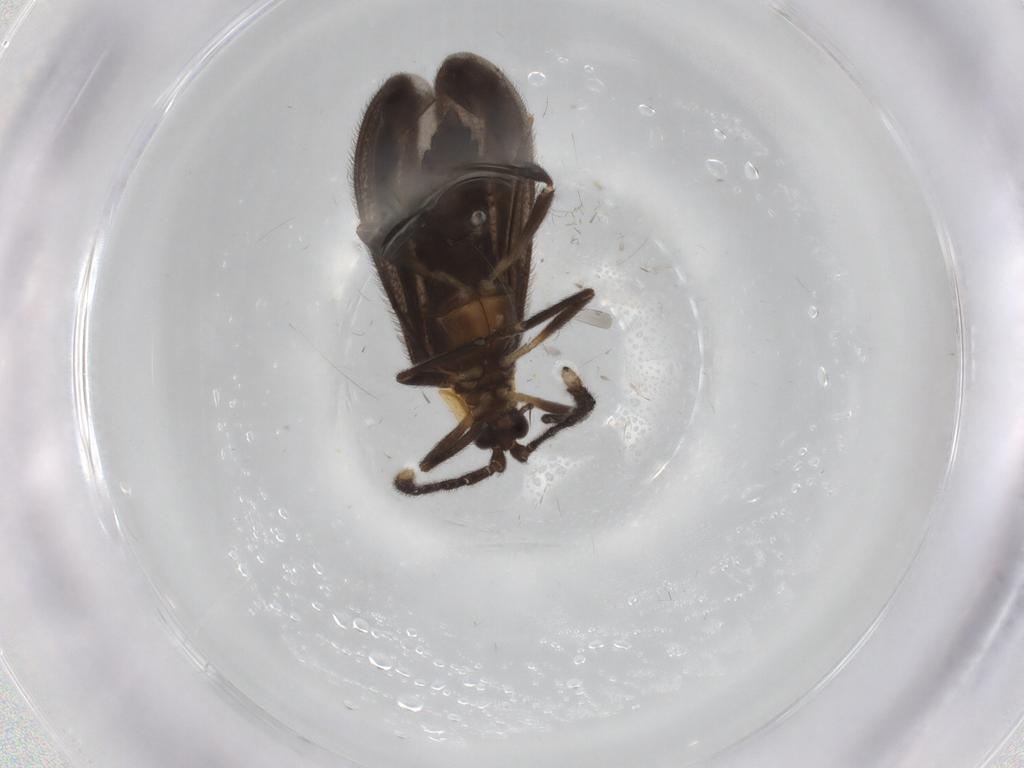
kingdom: Animalia
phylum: Arthropoda
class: Insecta
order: Coleoptera
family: Lycidae
